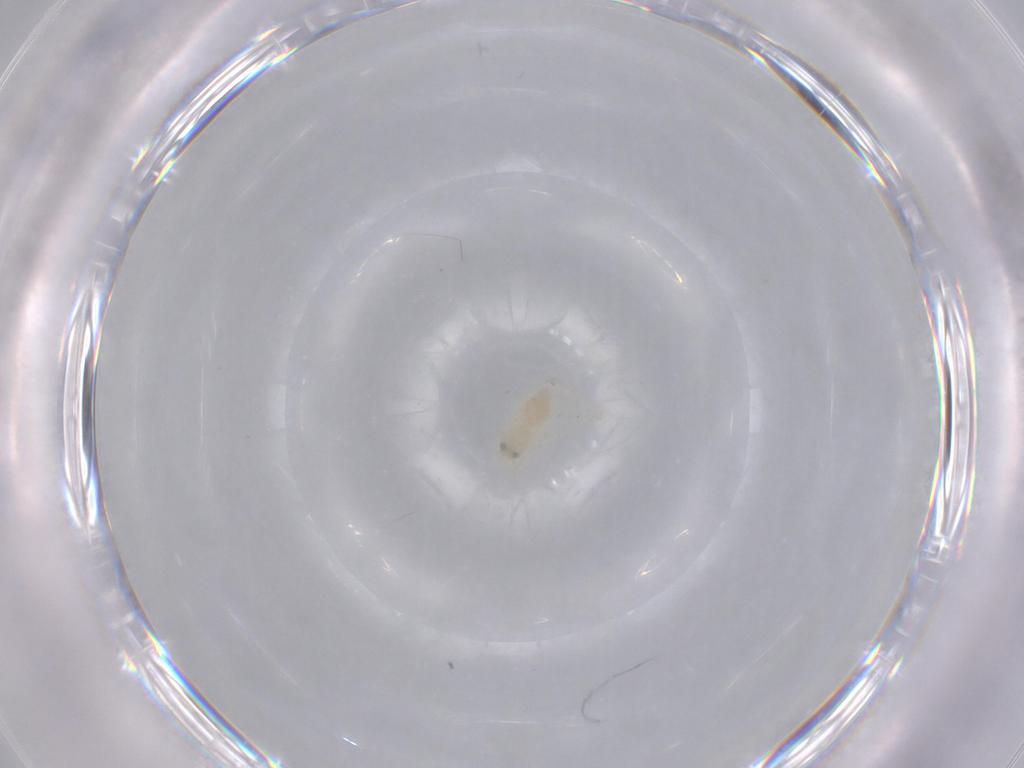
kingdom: Animalia
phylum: Arthropoda
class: Insecta
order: Hemiptera
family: Aleyrodidae
